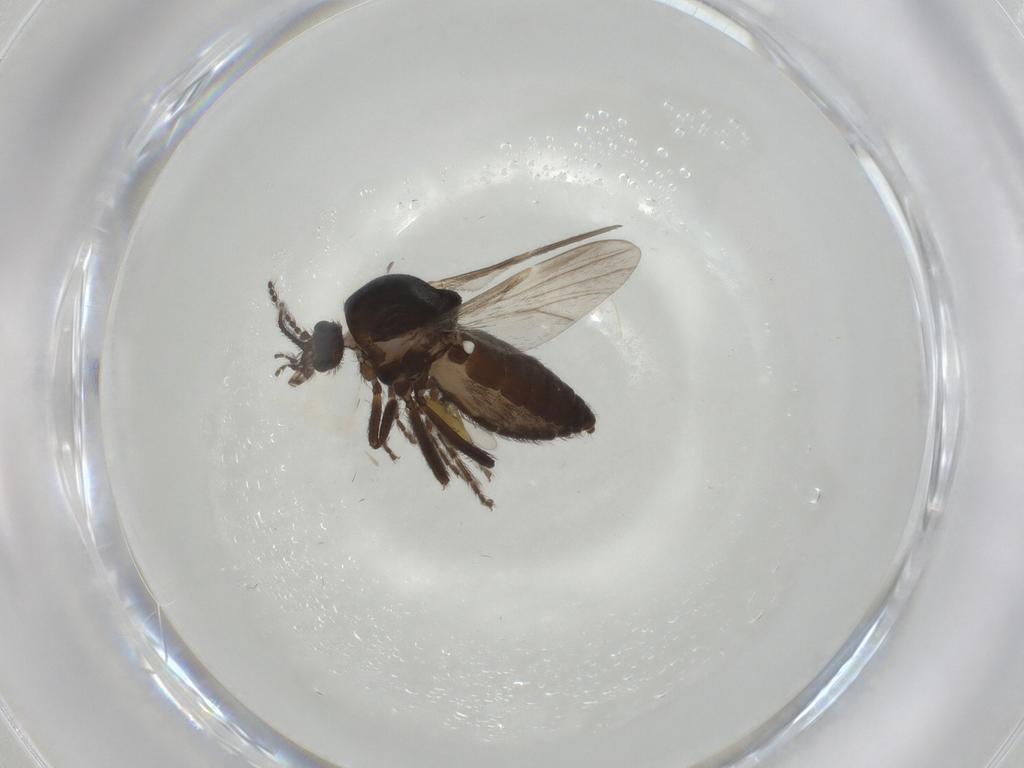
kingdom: Animalia
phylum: Arthropoda
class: Insecta
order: Diptera
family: Ceratopogonidae
